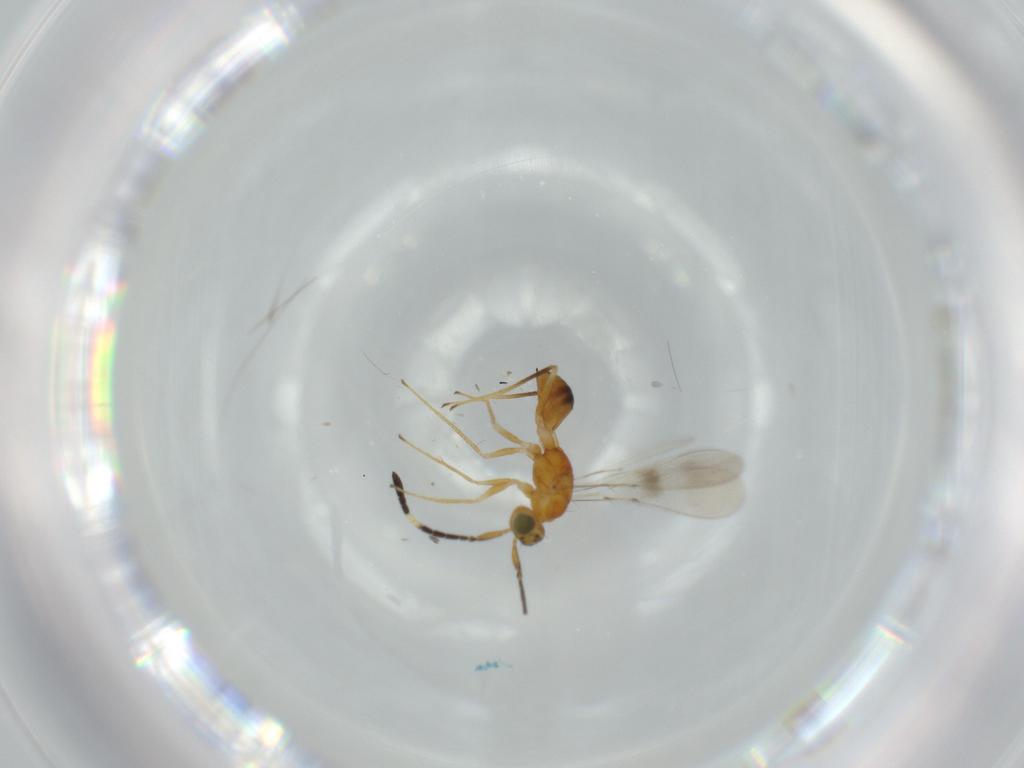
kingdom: Animalia
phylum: Arthropoda
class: Insecta
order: Hymenoptera
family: Mymaridae
